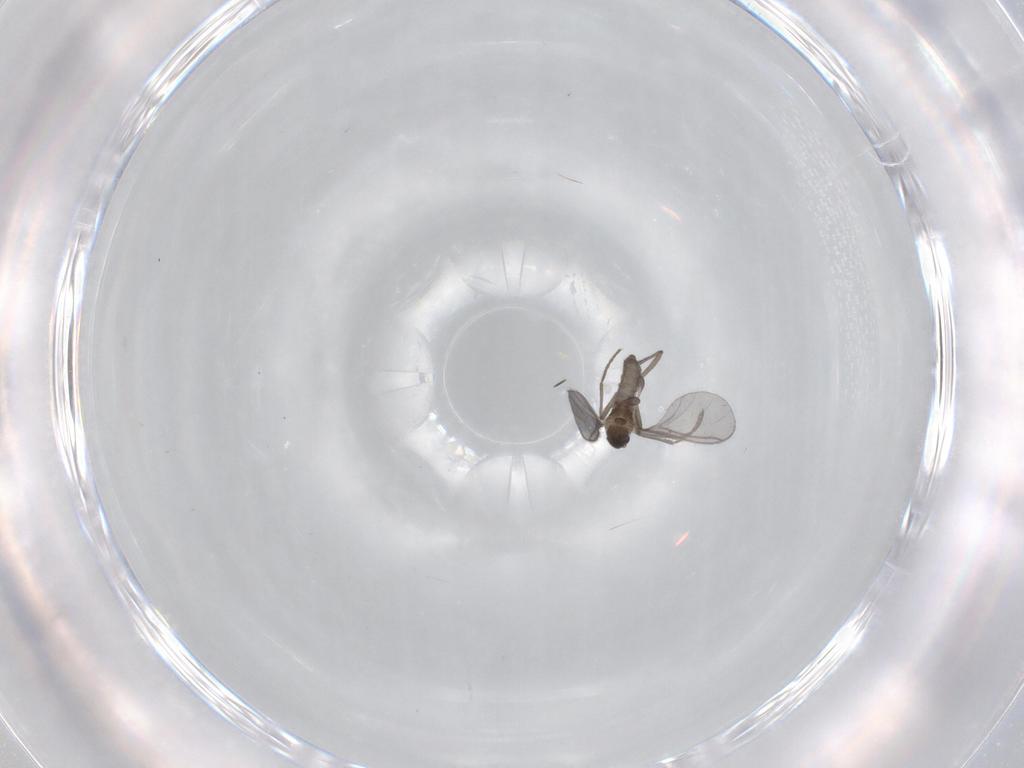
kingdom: Animalia
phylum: Arthropoda
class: Insecta
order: Diptera
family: Sciaridae
